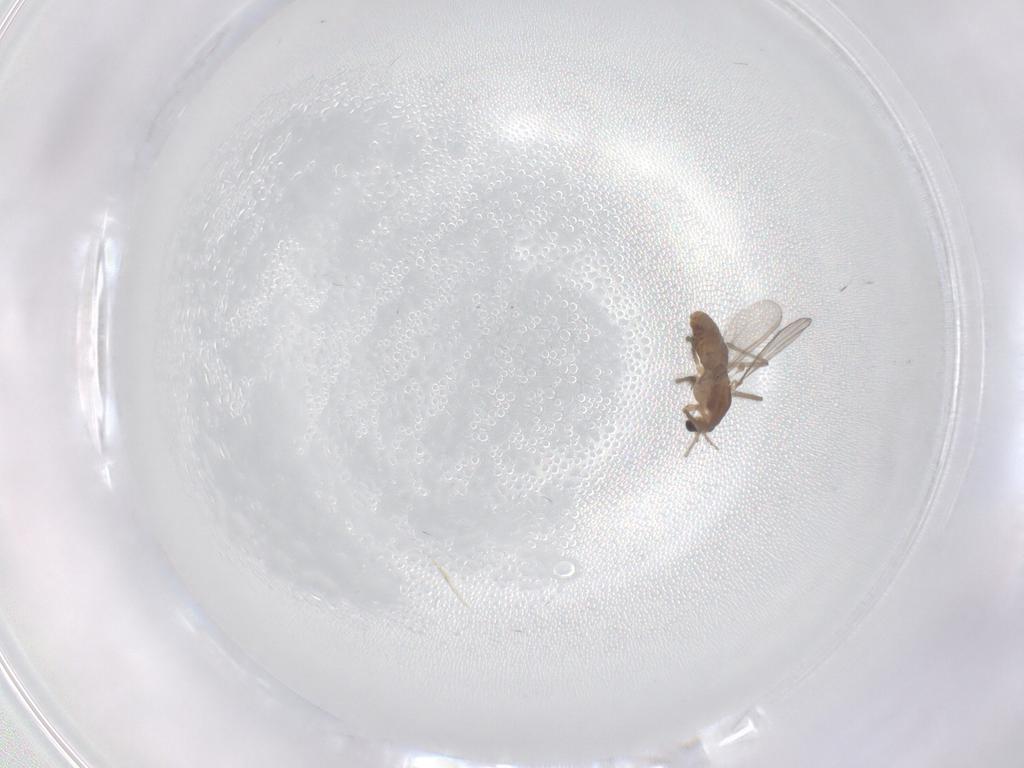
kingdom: Animalia
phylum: Arthropoda
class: Insecta
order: Diptera
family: Chironomidae
